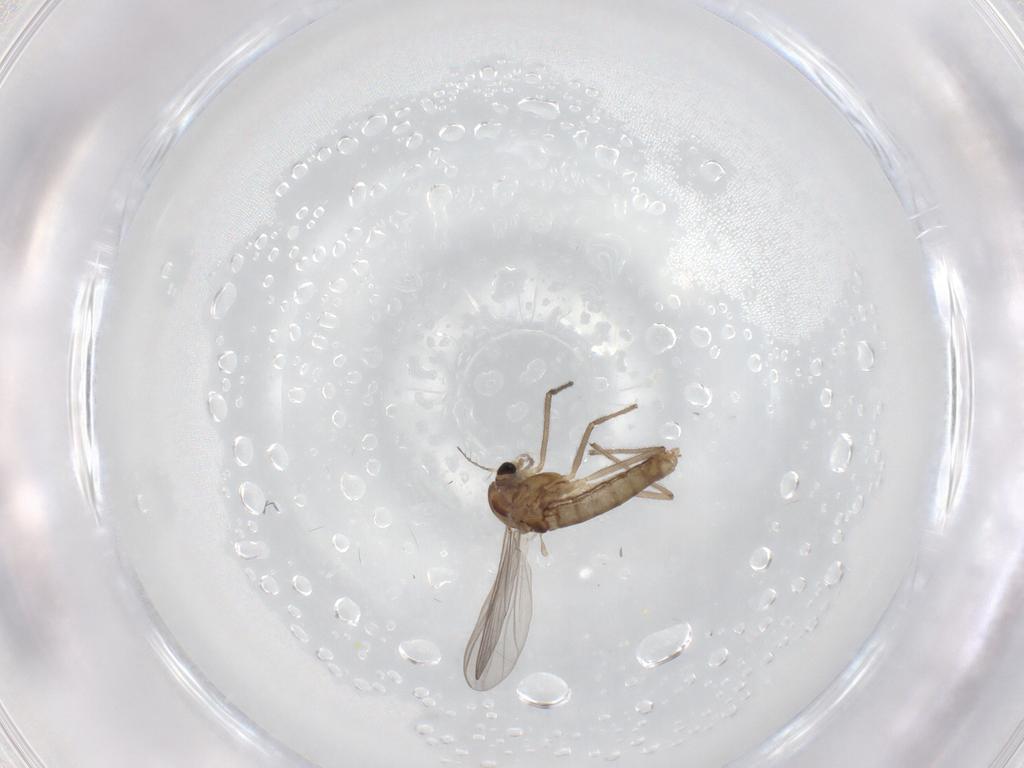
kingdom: Animalia
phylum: Arthropoda
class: Insecta
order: Diptera
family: Chironomidae
